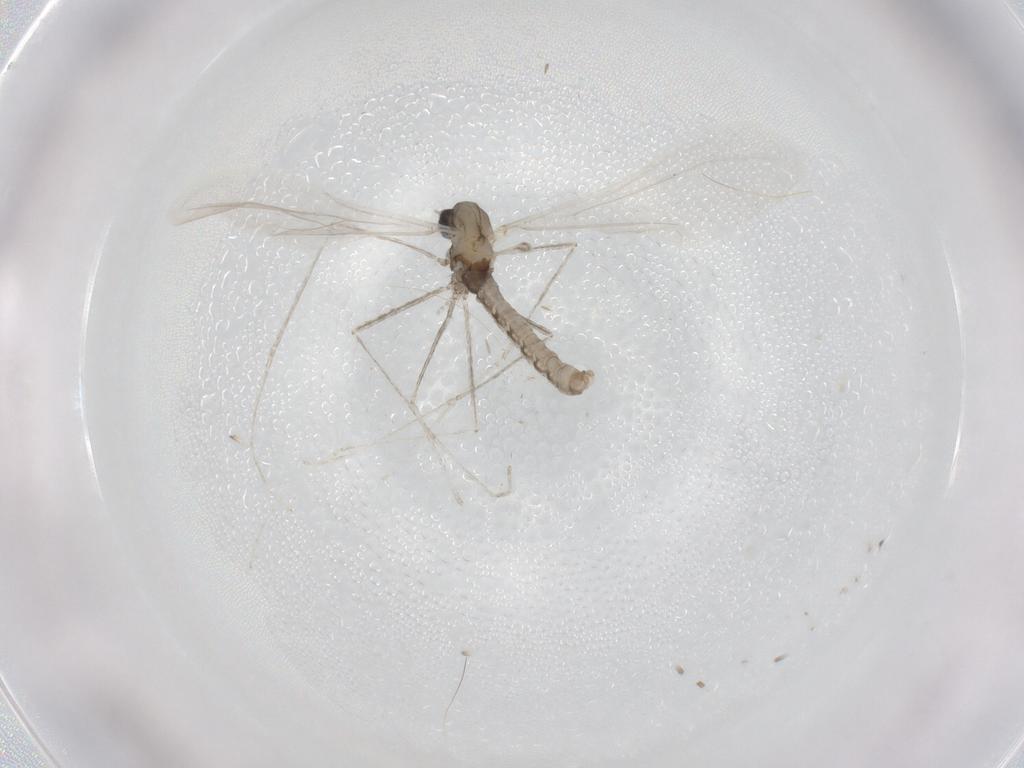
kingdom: Animalia
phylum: Arthropoda
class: Insecta
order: Diptera
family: Cecidomyiidae
